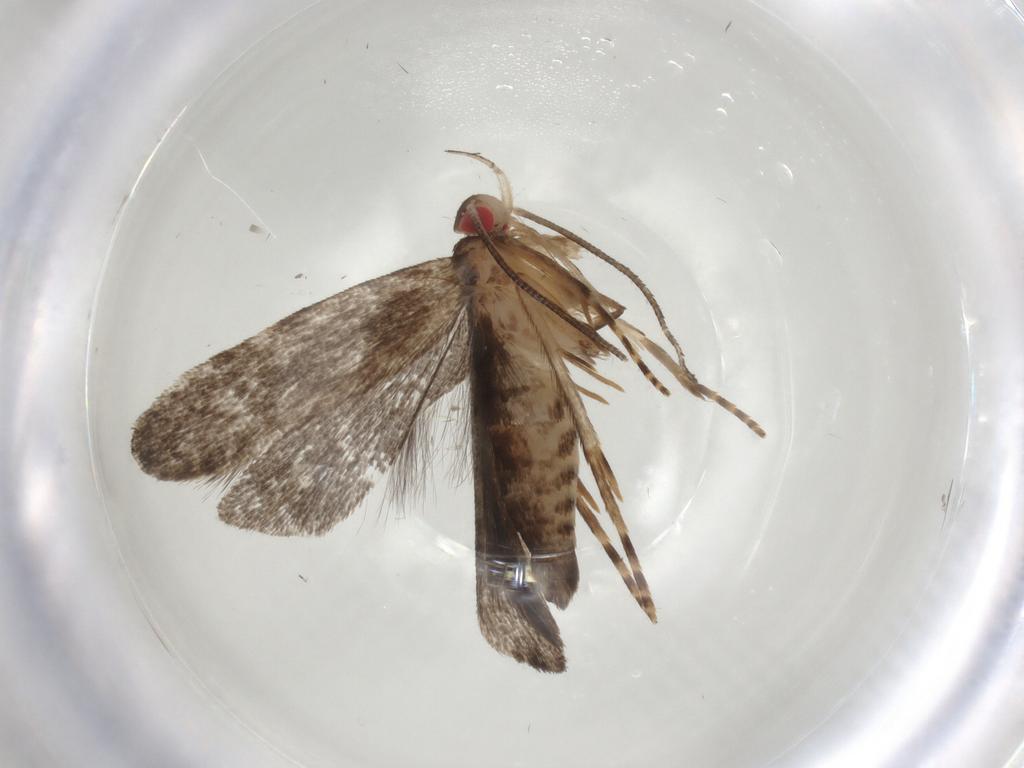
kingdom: Animalia
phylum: Arthropoda
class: Insecta
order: Lepidoptera
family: Gelechiidae
